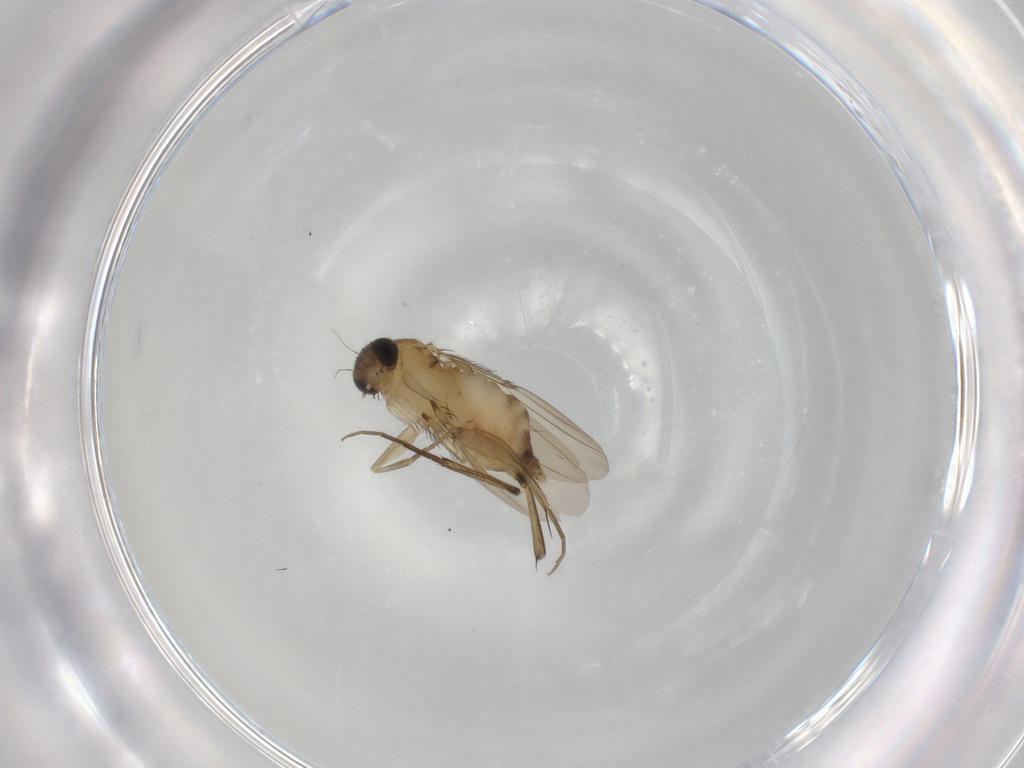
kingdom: Animalia
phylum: Arthropoda
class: Insecta
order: Diptera
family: Phoridae
